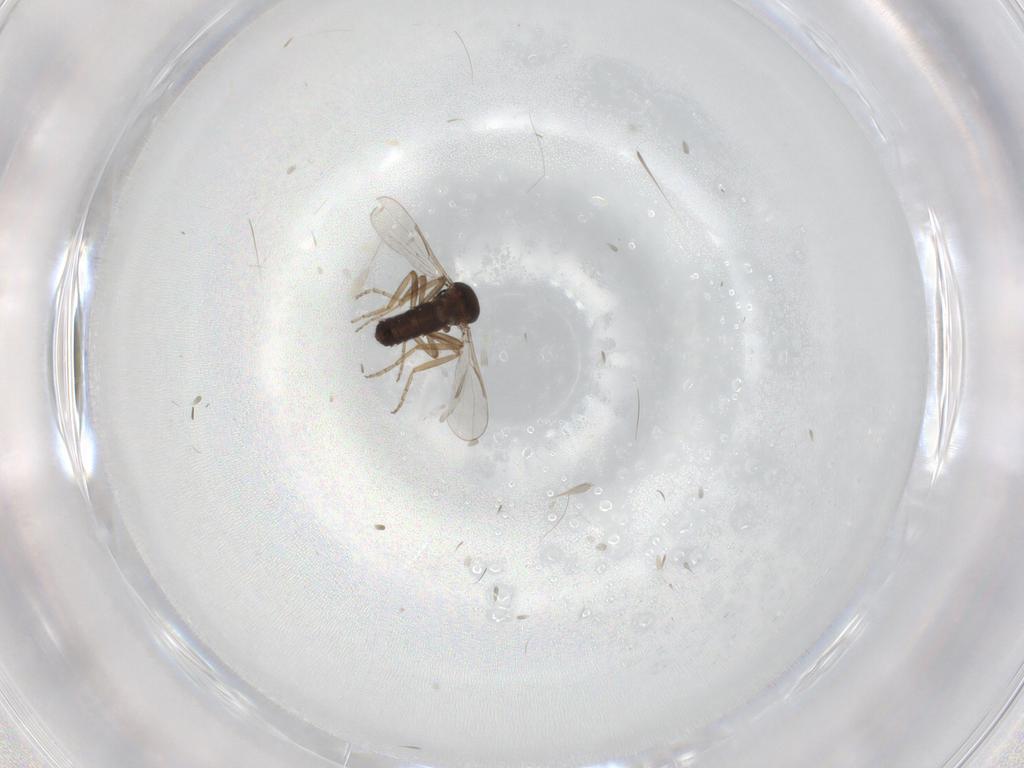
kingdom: Animalia
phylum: Arthropoda
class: Insecta
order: Diptera
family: Ceratopogonidae
